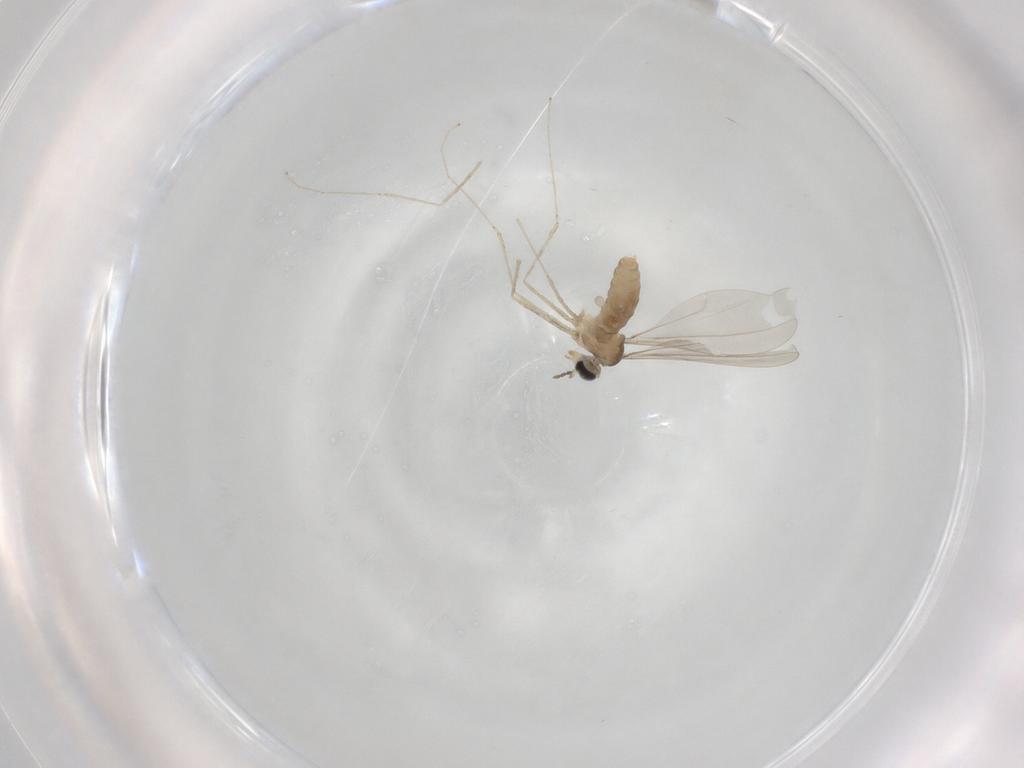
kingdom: Animalia
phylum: Arthropoda
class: Insecta
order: Diptera
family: Cecidomyiidae
